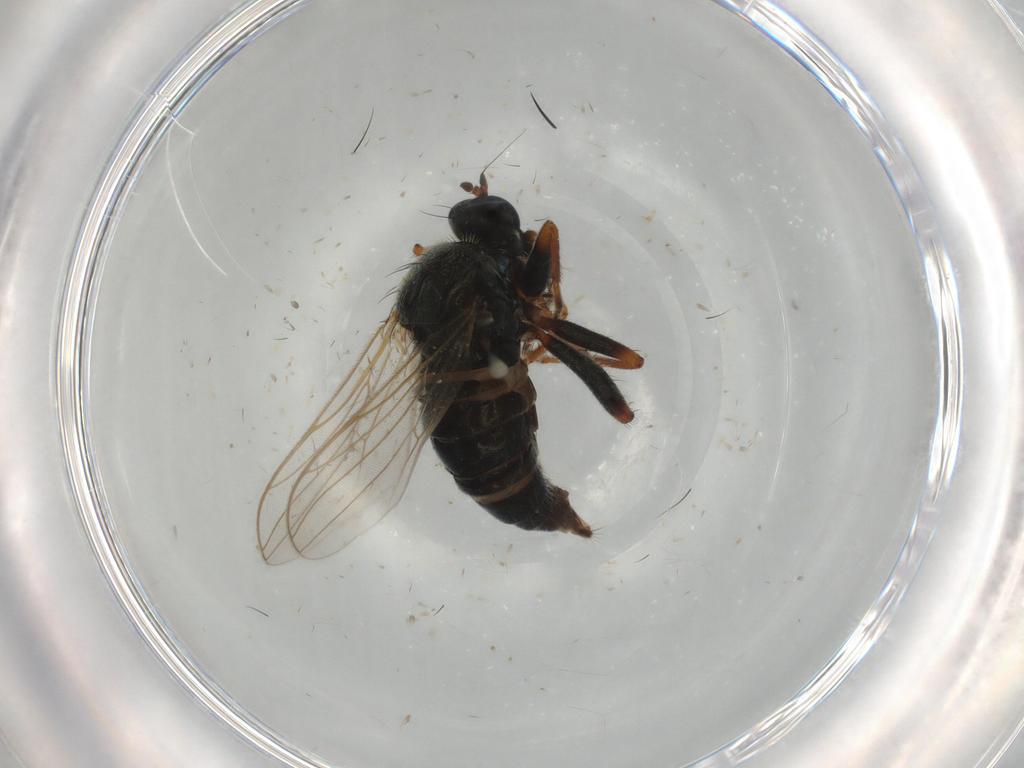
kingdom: Animalia
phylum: Arthropoda
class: Insecta
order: Diptera
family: Hybotidae
